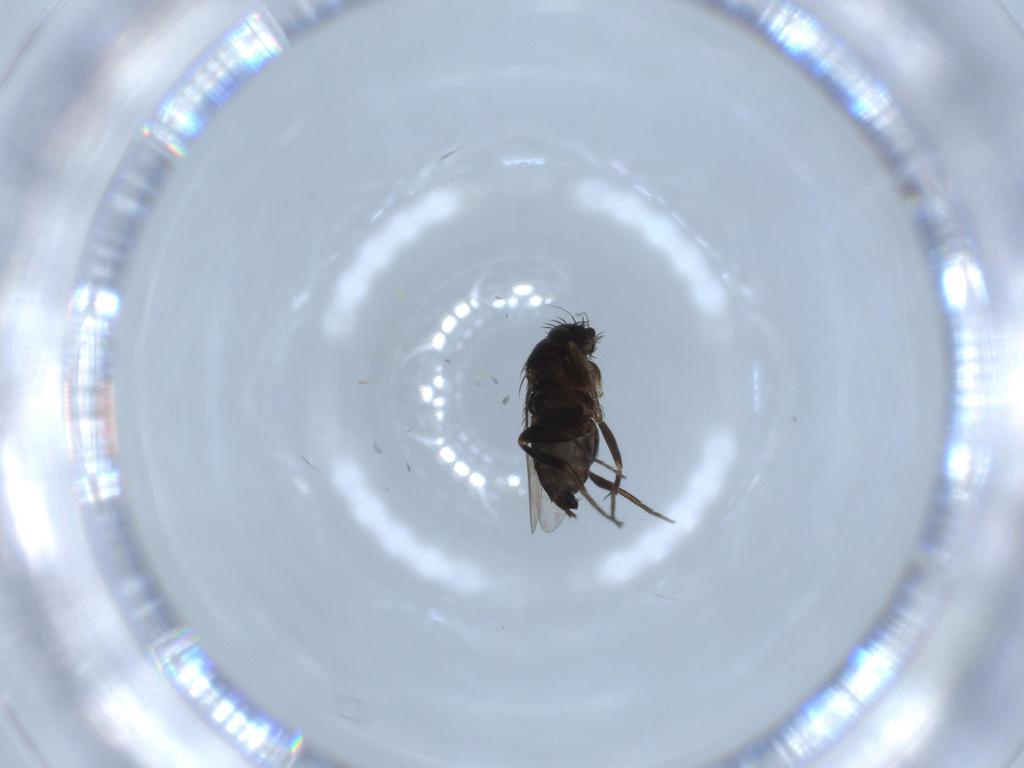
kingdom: Animalia
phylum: Arthropoda
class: Insecta
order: Diptera
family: Phoridae
